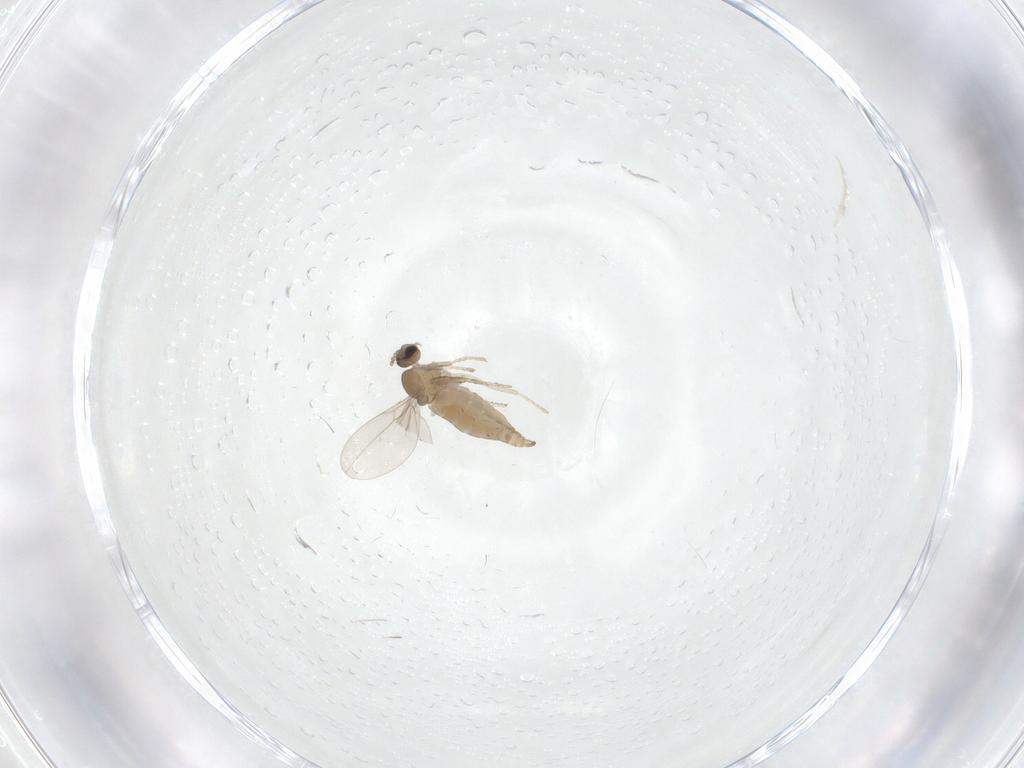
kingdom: Animalia
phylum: Arthropoda
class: Insecta
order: Diptera
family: Cecidomyiidae
